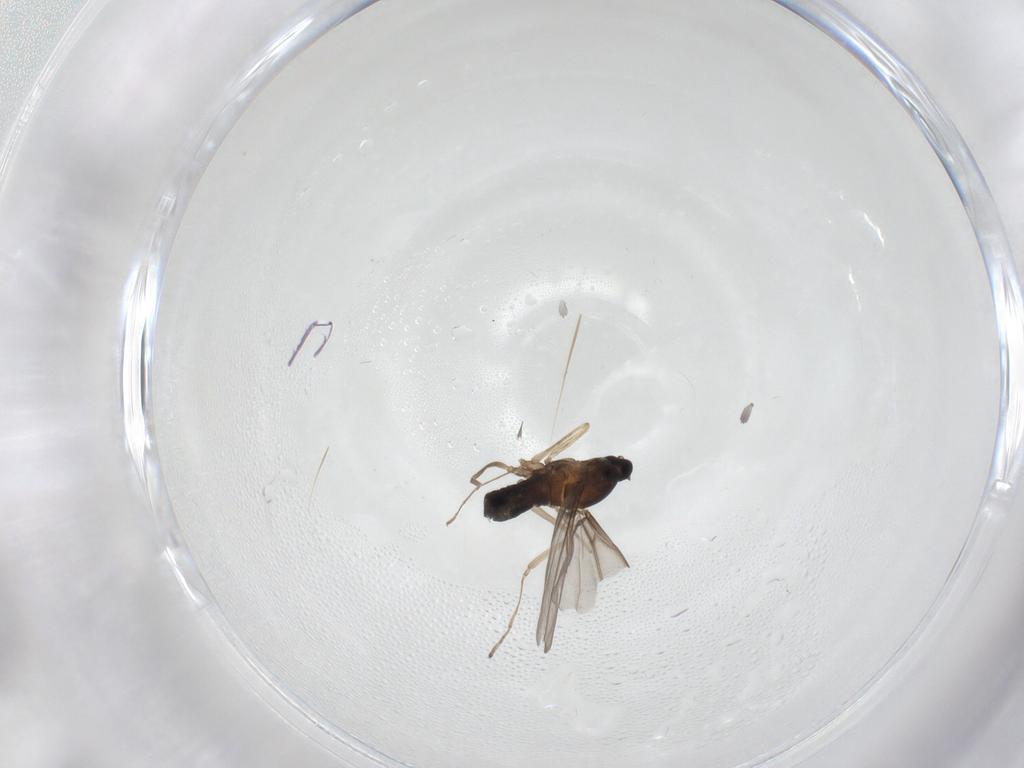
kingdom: Animalia
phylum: Arthropoda
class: Insecta
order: Diptera
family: Cecidomyiidae
